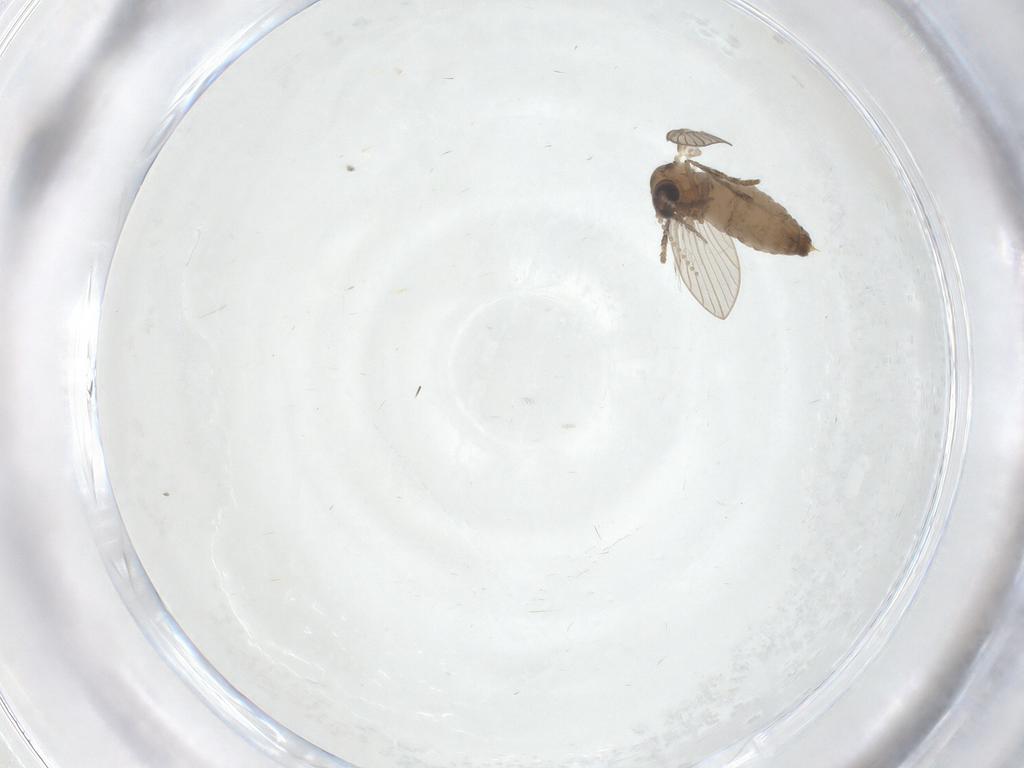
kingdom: Animalia
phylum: Arthropoda
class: Insecta
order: Diptera
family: Psychodidae
